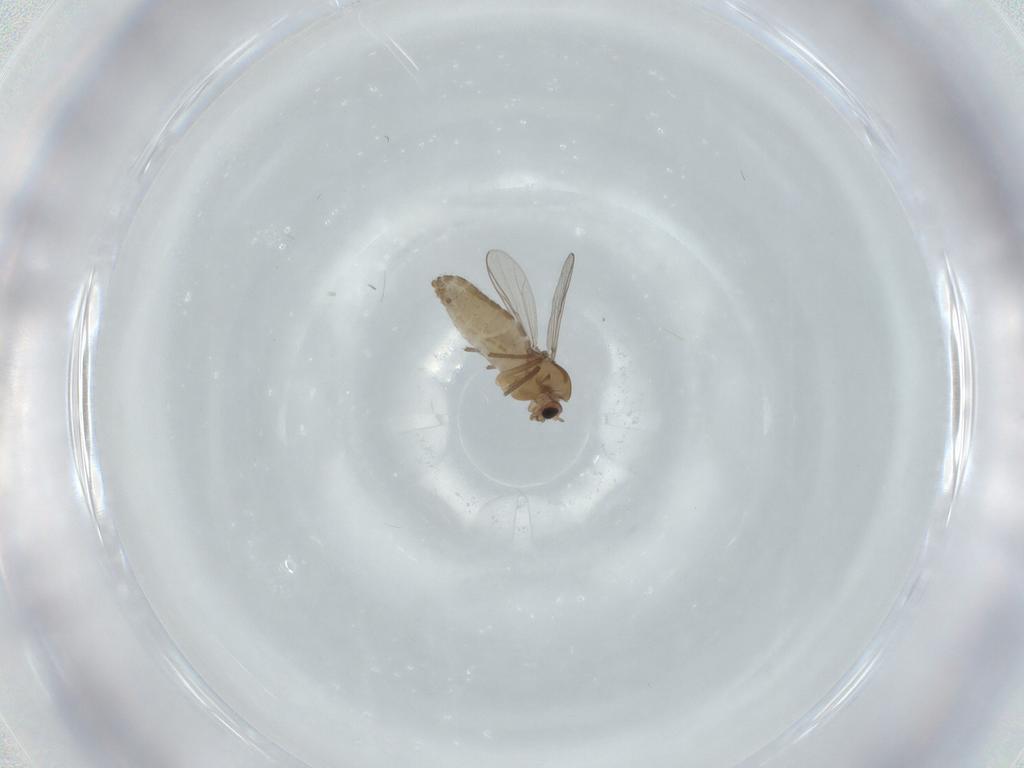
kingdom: Animalia
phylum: Arthropoda
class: Insecta
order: Diptera
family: Chironomidae
